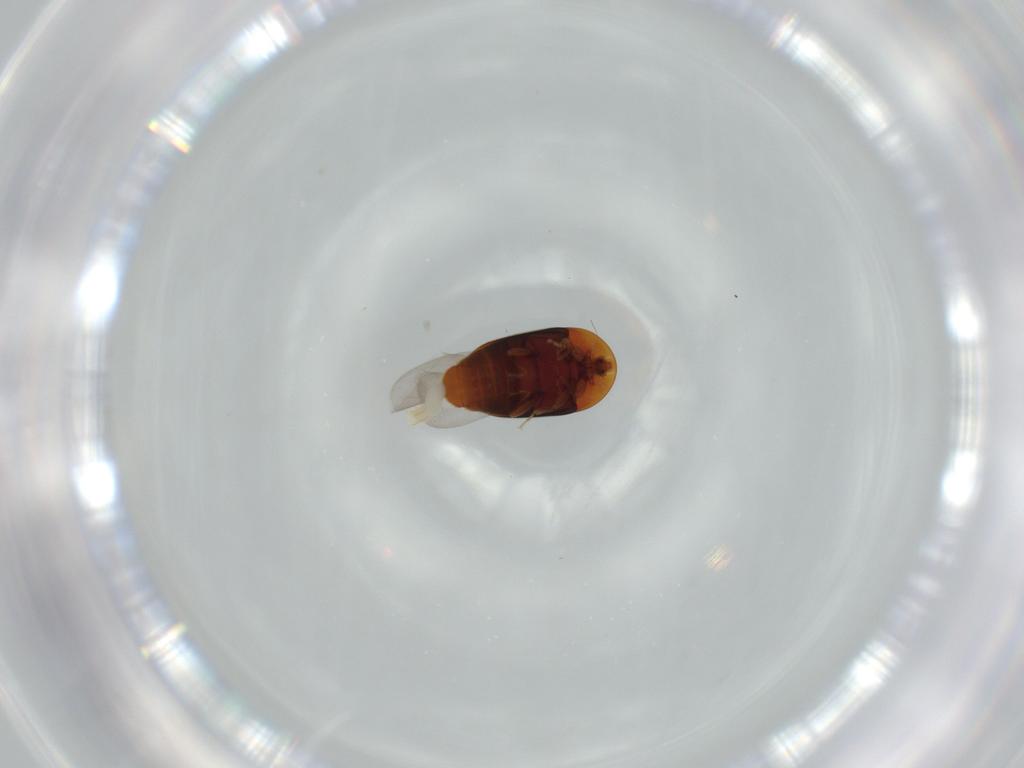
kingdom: Animalia
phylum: Arthropoda
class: Insecta
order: Coleoptera
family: Corylophidae
